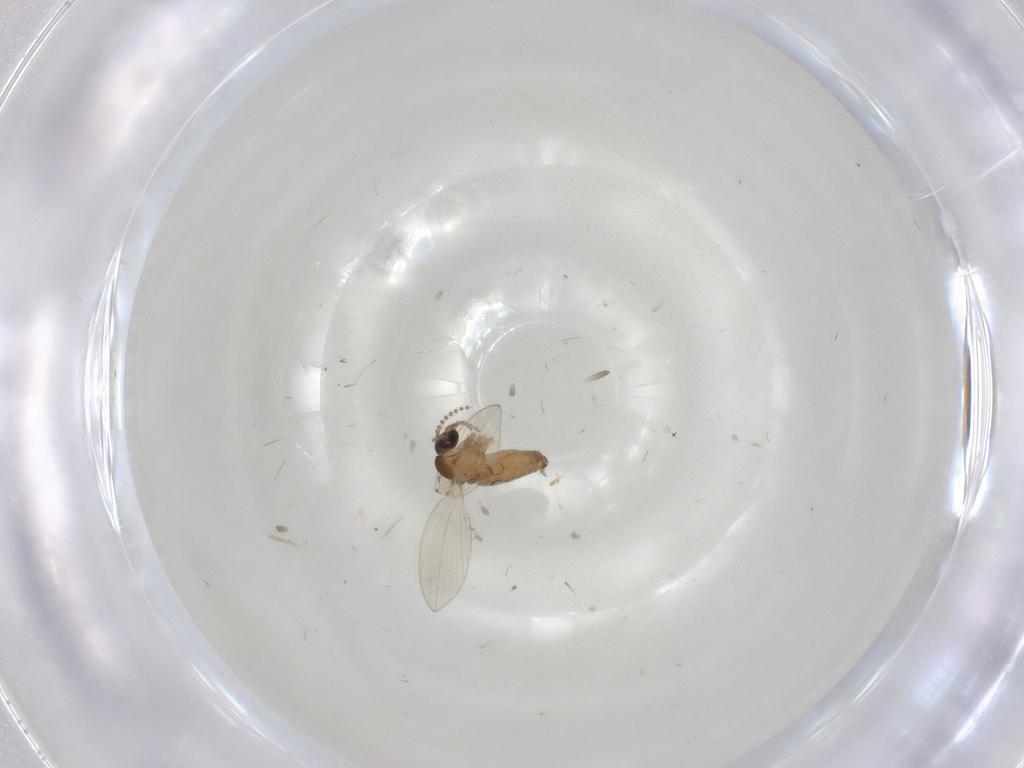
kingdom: Animalia
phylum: Arthropoda
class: Insecta
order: Diptera
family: Psychodidae
